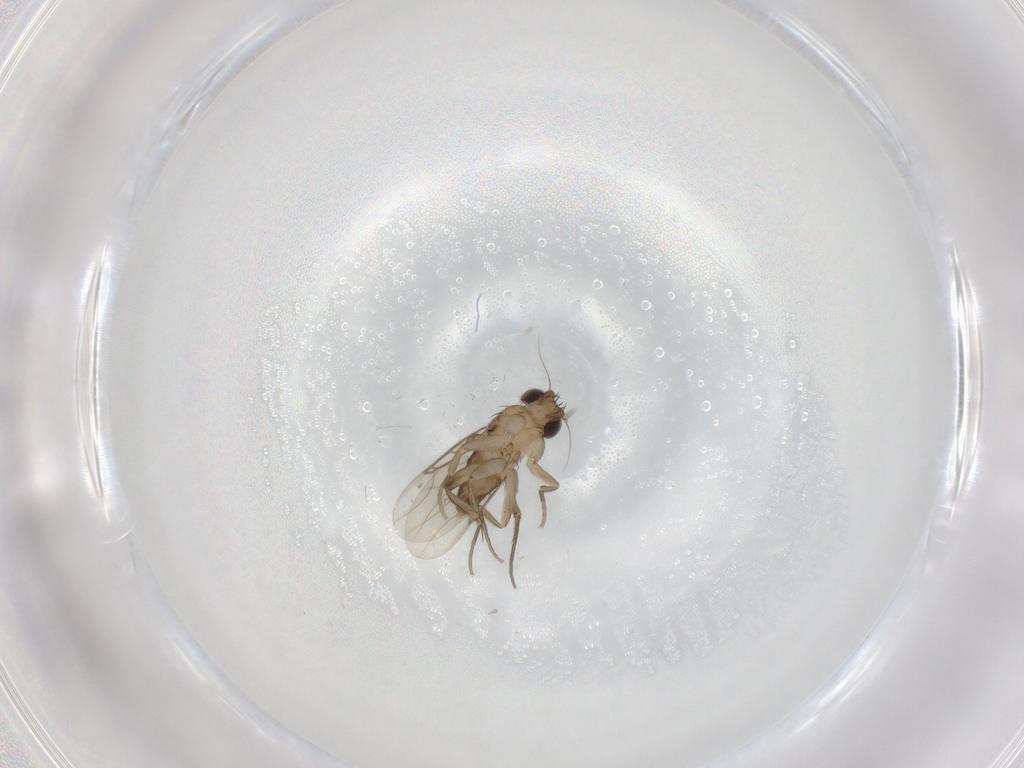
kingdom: Animalia
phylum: Arthropoda
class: Insecta
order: Diptera
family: Phoridae
